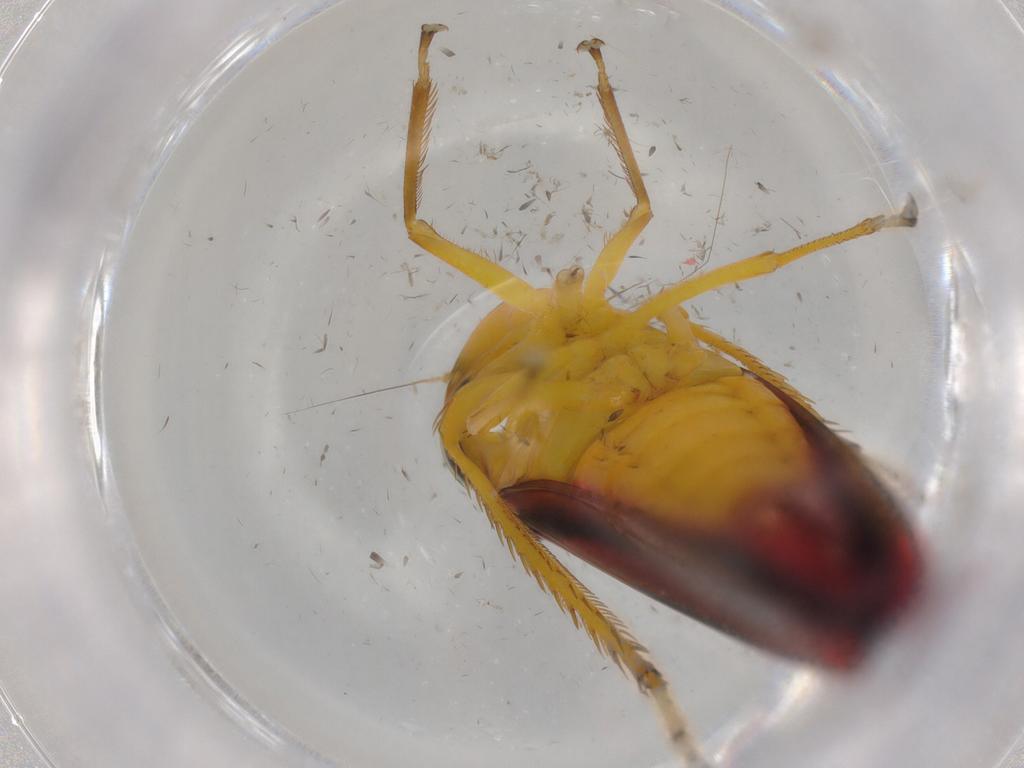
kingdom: Animalia
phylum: Arthropoda
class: Insecta
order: Hemiptera
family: Cicadellidae
